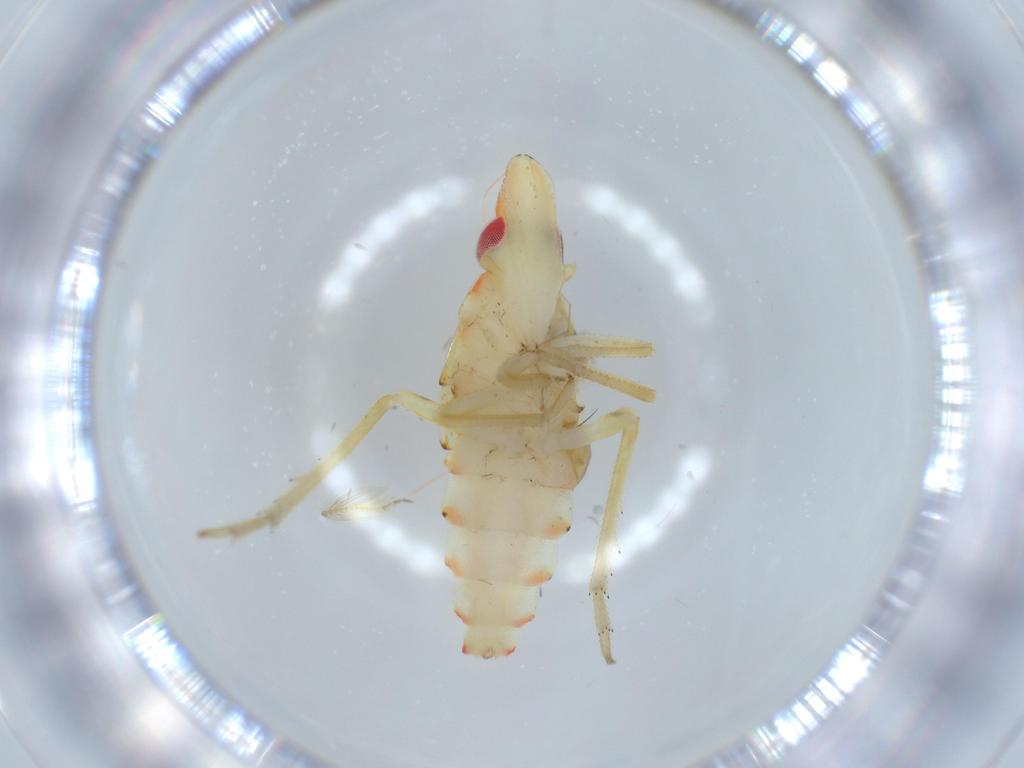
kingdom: Animalia
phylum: Arthropoda
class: Insecta
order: Hemiptera
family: Tropiduchidae
